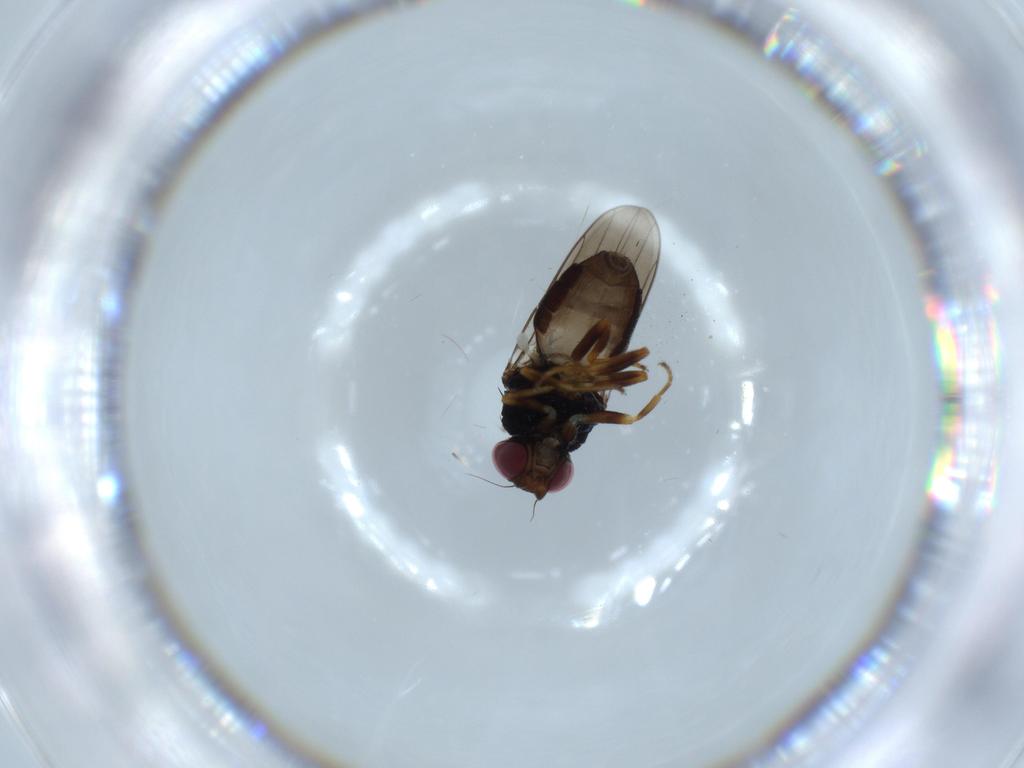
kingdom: Animalia
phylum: Arthropoda
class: Insecta
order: Diptera
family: Chloropidae
